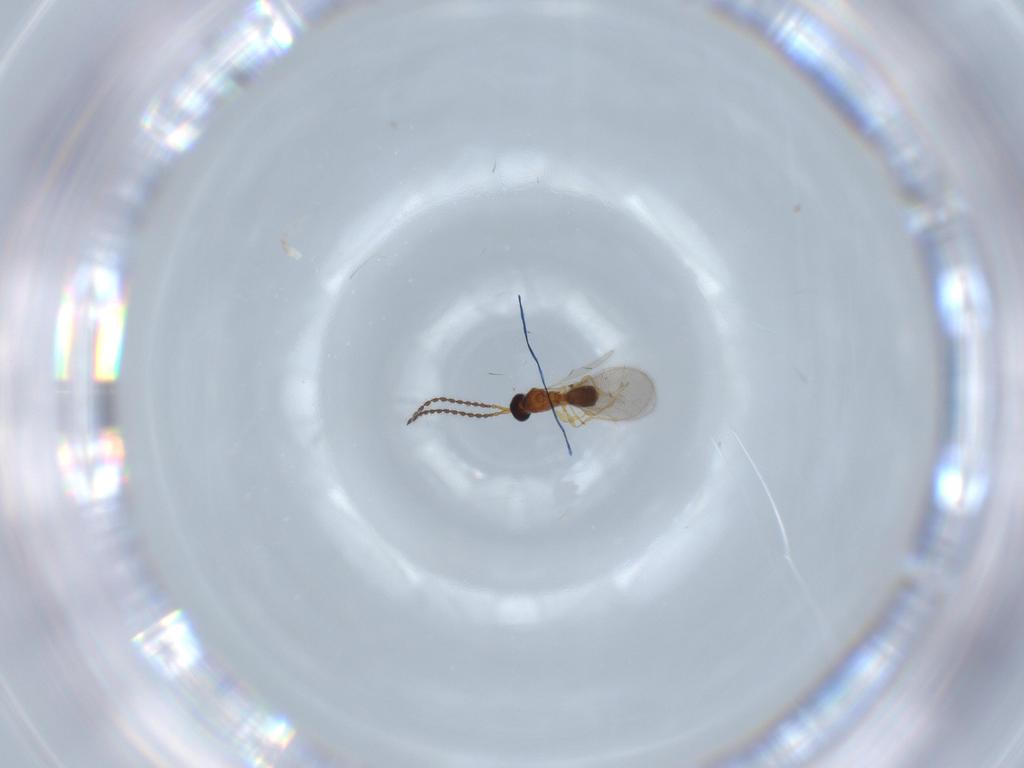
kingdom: Animalia
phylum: Arthropoda
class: Insecta
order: Hymenoptera
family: Diapriidae
